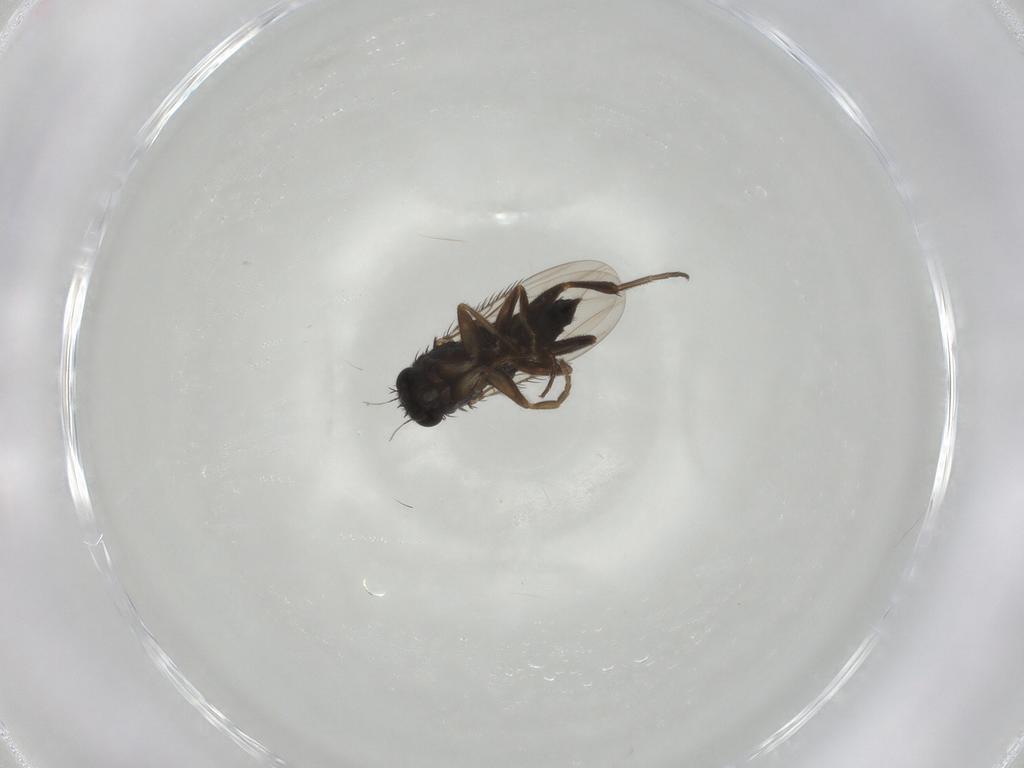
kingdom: Animalia
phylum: Arthropoda
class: Insecta
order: Diptera
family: Phoridae
